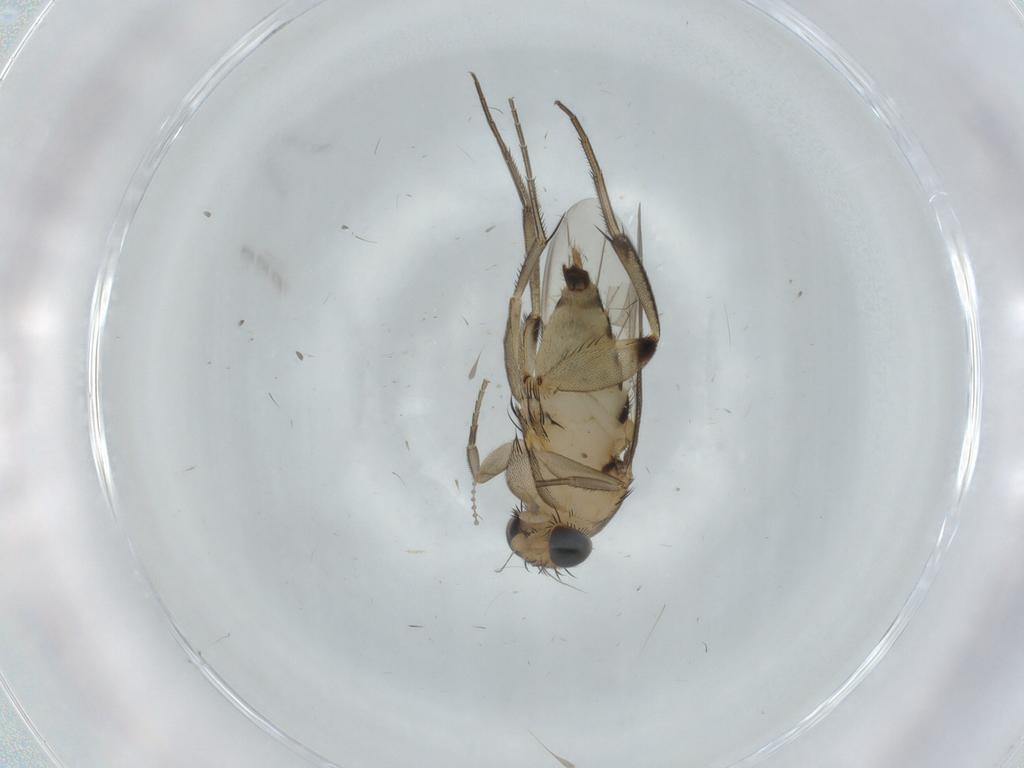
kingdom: Animalia
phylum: Arthropoda
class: Insecta
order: Diptera
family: Cecidomyiidae
